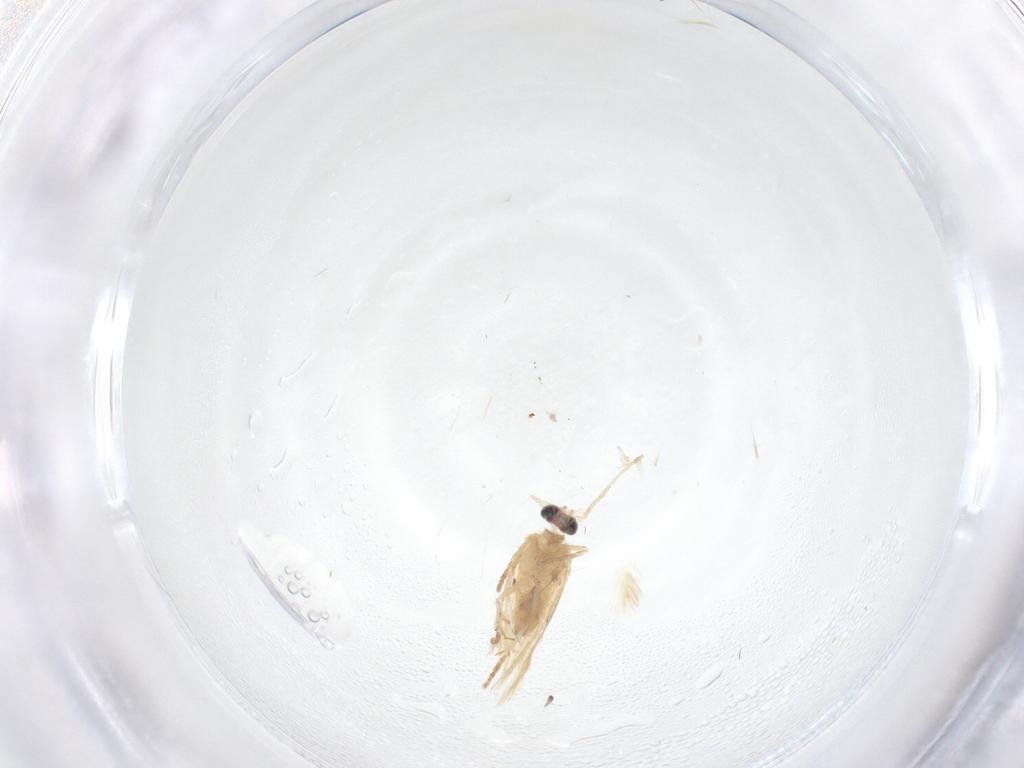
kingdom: Animalia
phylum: Arthropoda
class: Insecta
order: Lepidoptera
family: Nepticulidae
